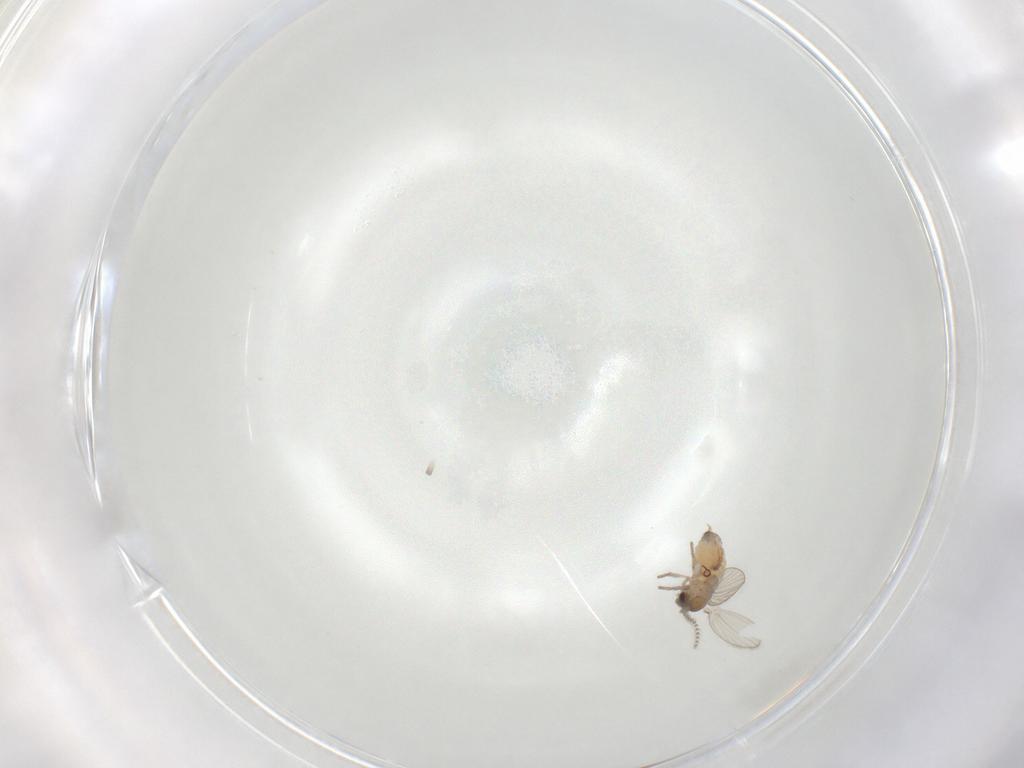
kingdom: Animalia
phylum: Arthropoda
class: Insecta
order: Diptera
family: Psychodidae
